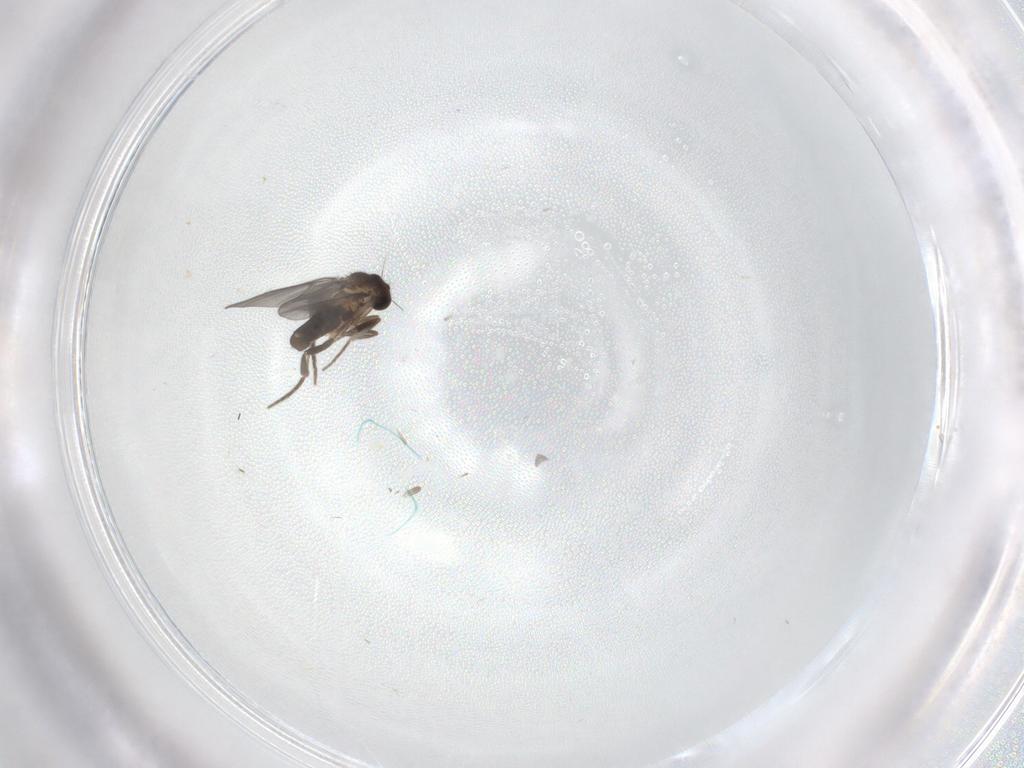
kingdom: Animalia
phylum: Arthropoda
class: Insecta
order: Diptera
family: Phoridae
